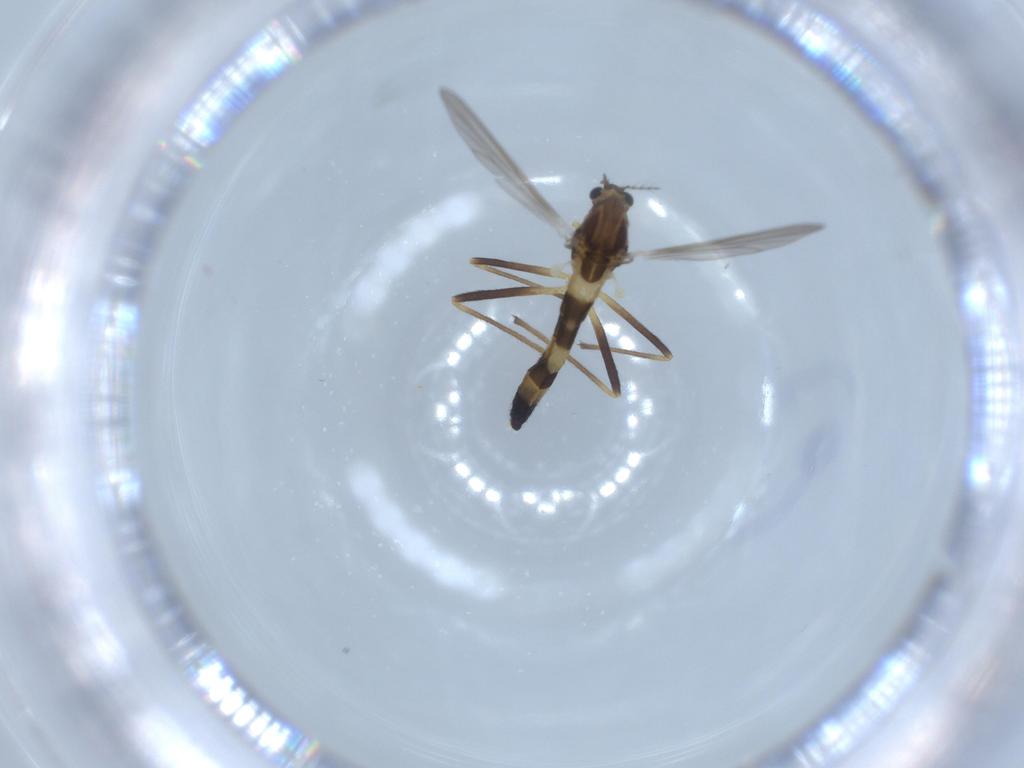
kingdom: Animalia
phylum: Arthropoda
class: Insecta
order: Diptera
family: Chironomidae
